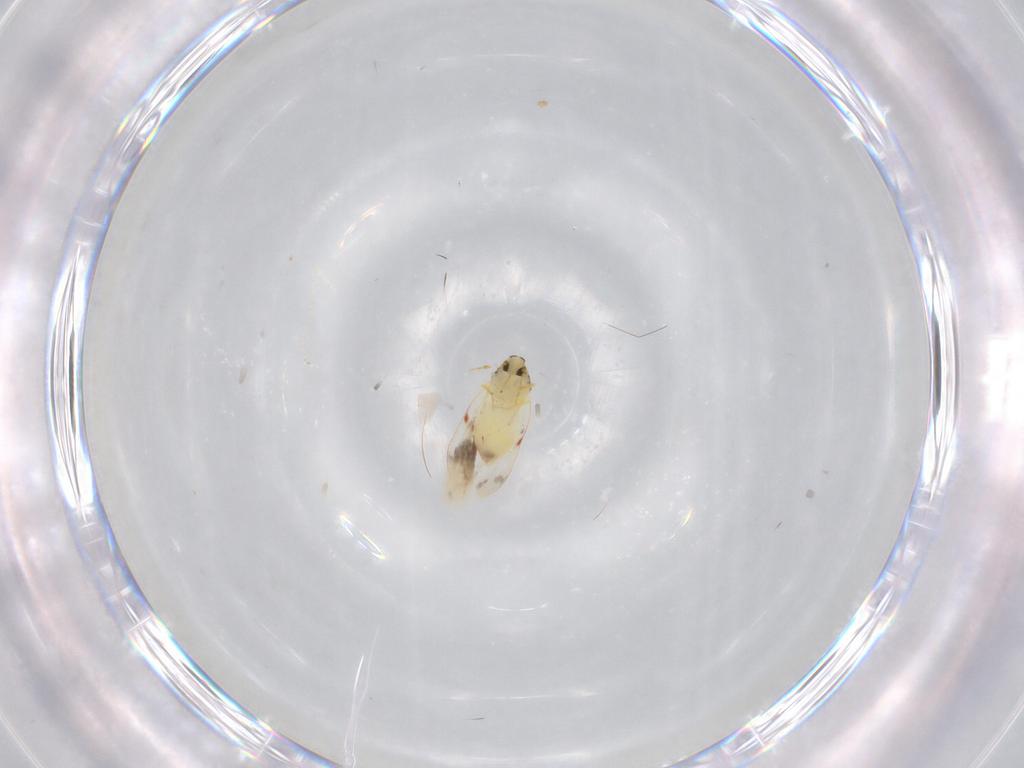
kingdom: Animalia
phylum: Arthropoda
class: Insecta
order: Hemiptera
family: Aleyrodidae
